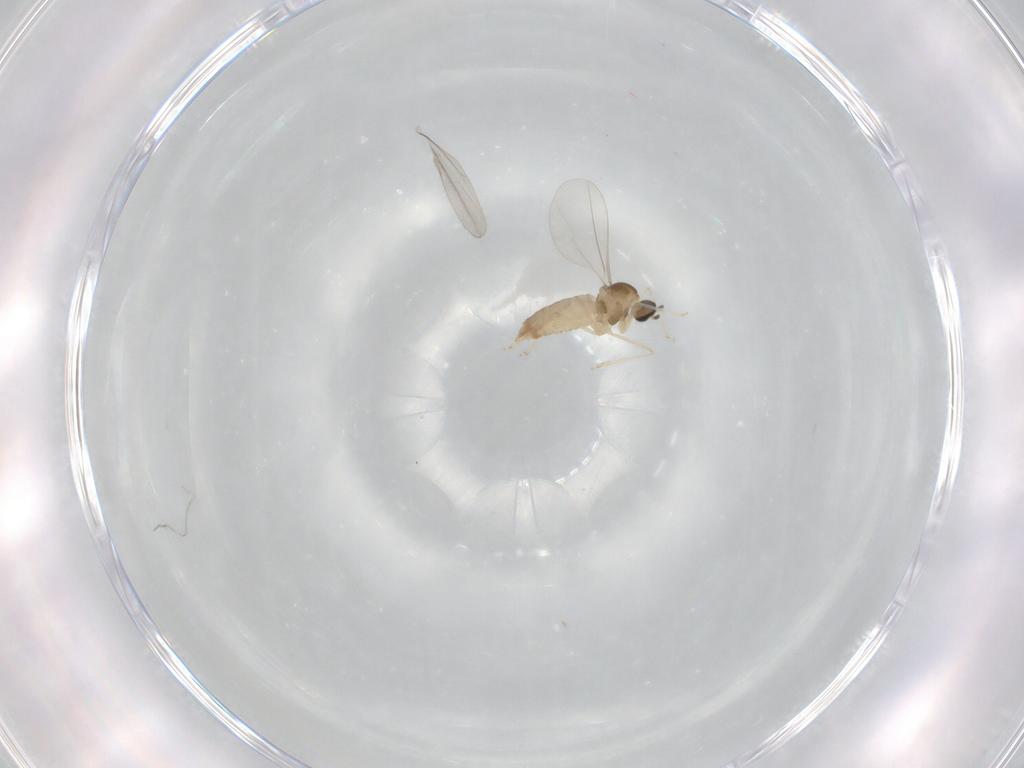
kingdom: Animalia
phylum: Arthropoda
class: Insecta
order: Diptera
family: Cecidomyiidae
